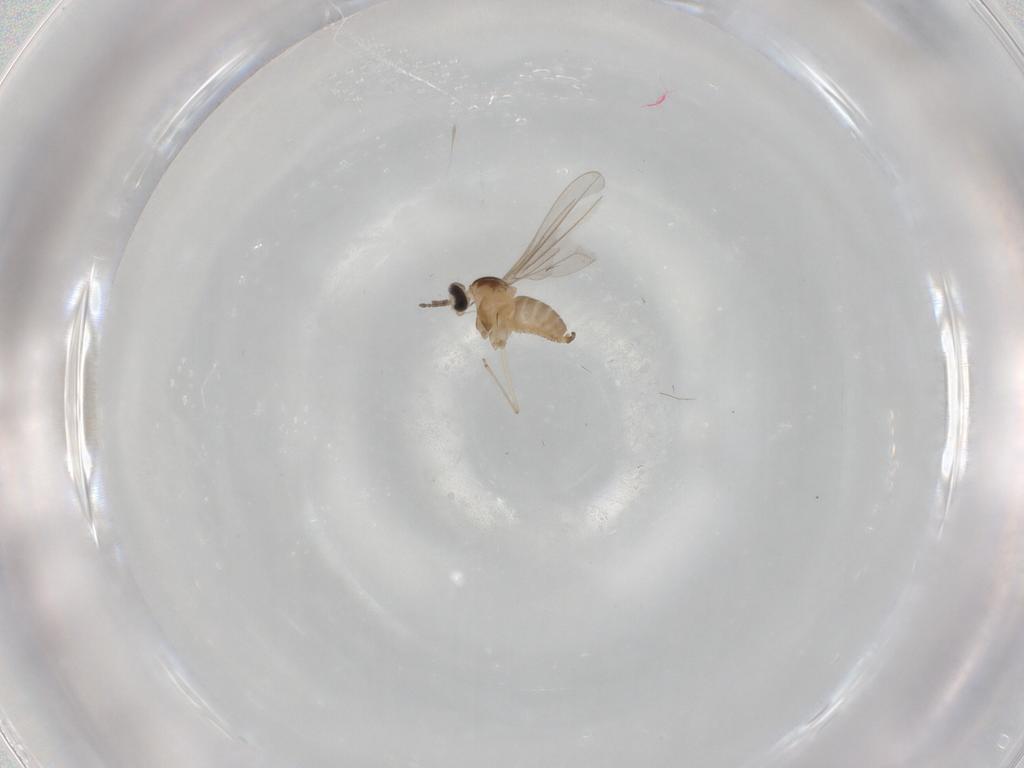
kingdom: Animalia
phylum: Arthropoda
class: Insecta
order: Diptera
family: Cecidomyiidae
